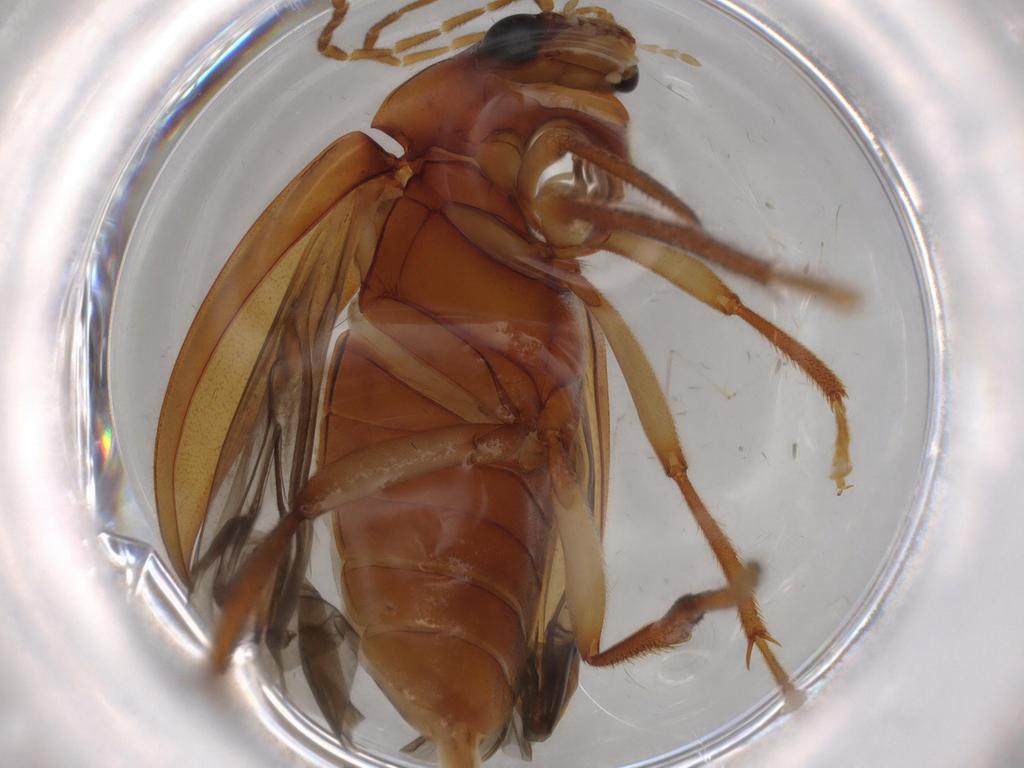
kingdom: Animalia
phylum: Arthropoda
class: Insecta
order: Coleoptera
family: Ptilodactylidae
